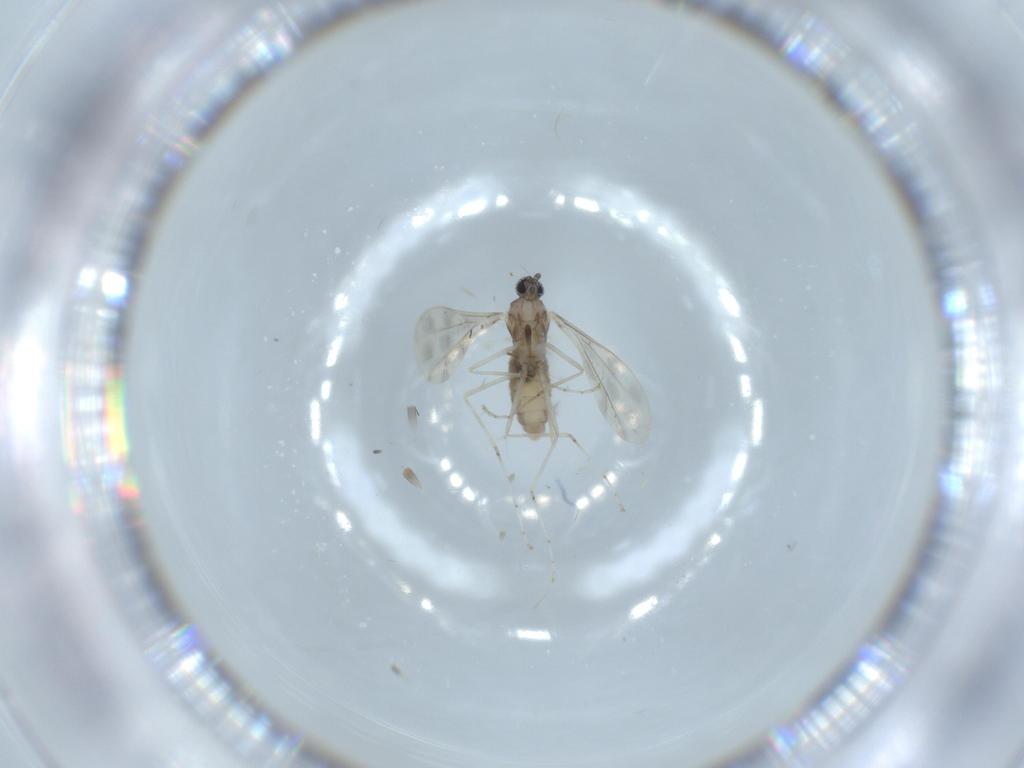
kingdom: Animalia
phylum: Arthropoda
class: Insecta
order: Diptera
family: Cecidomyiidae
